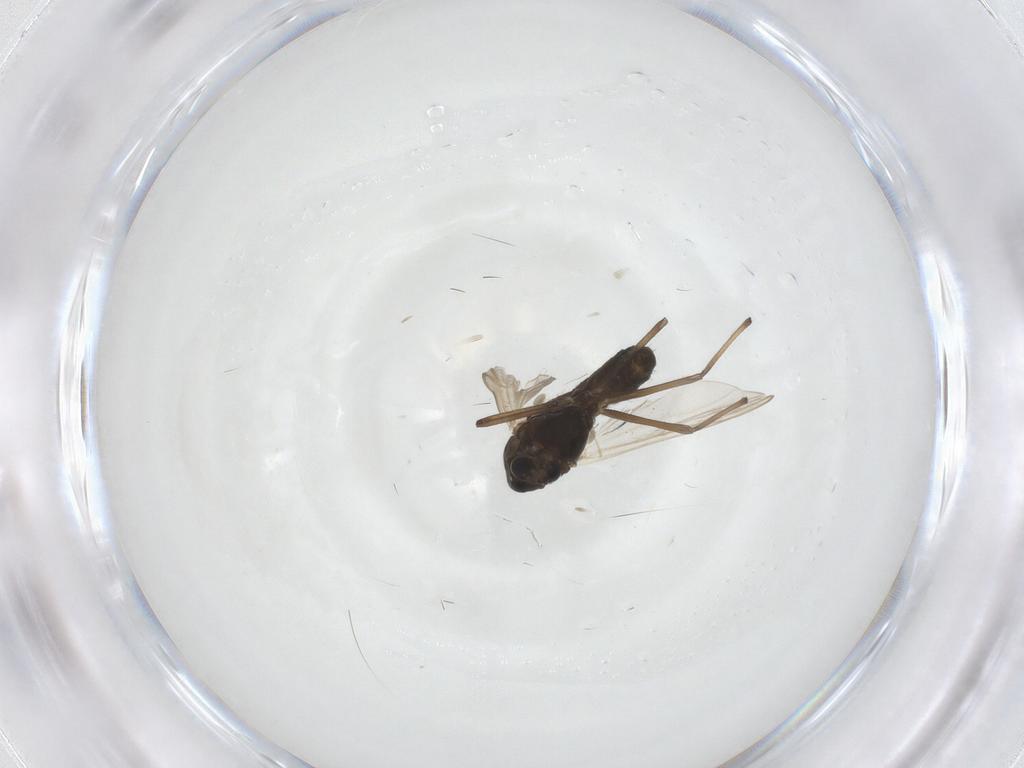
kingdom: Animalia
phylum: Arthropoda
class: Insecta
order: Diptera
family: Chironomidae
